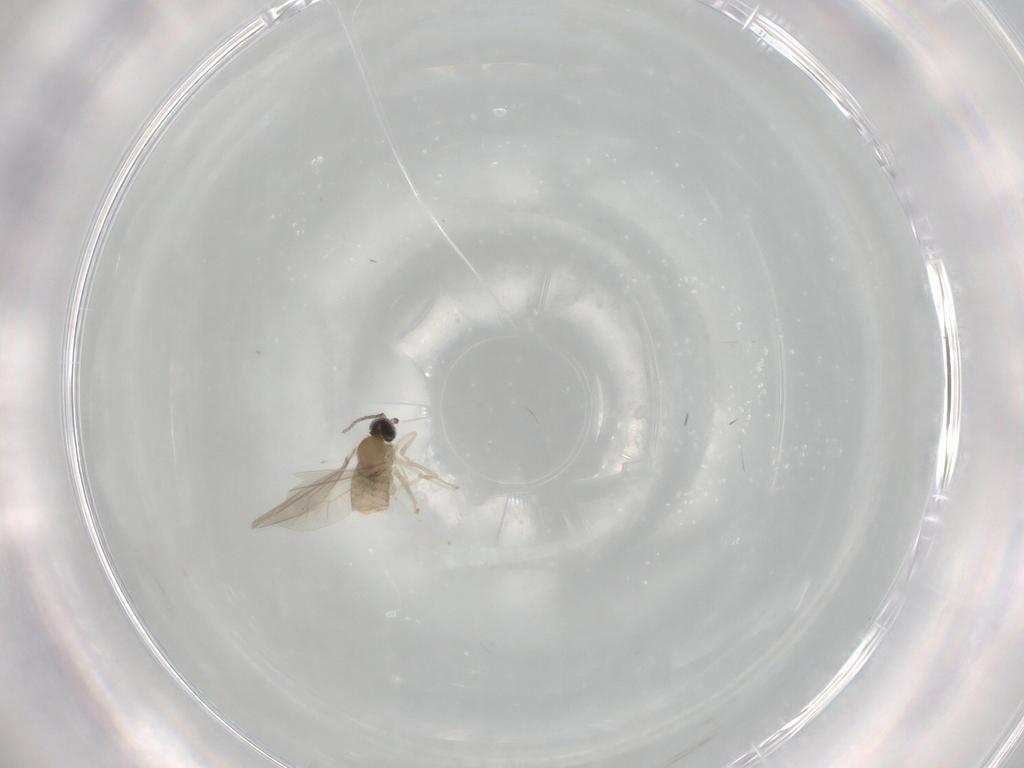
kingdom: Animalia
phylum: Arthropoda
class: Insecta
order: Diptera
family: Cecidomyiidae
